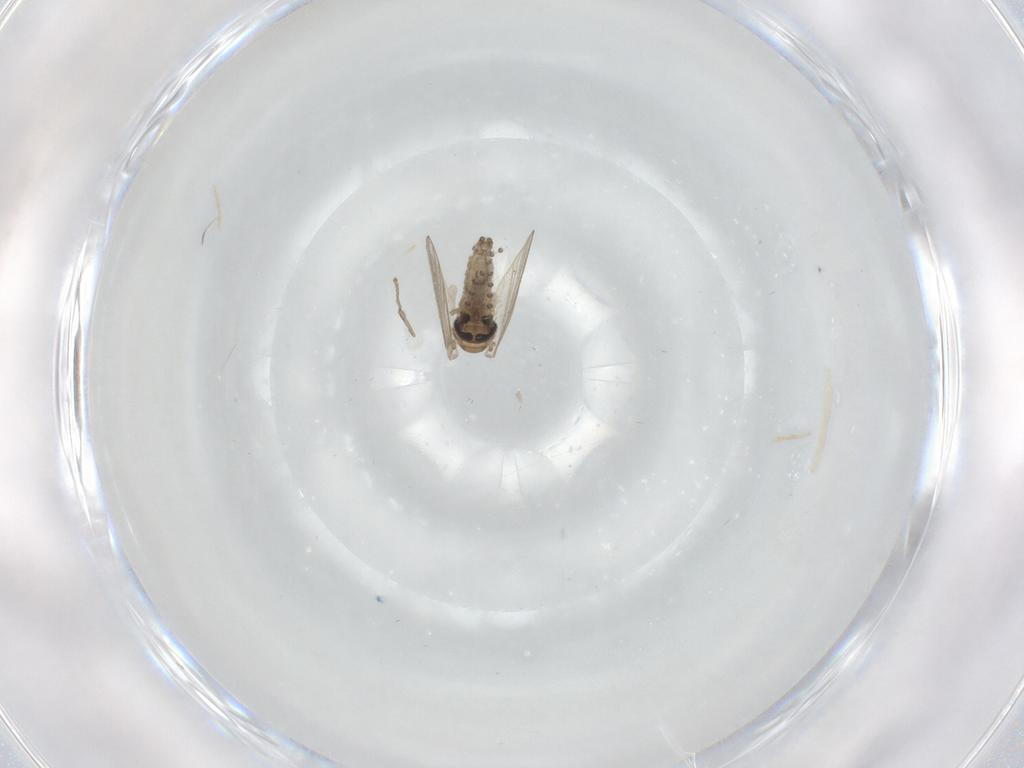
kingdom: Animalia
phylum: Arthropoda
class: Insecta
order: Diptera
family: Psychodidae
